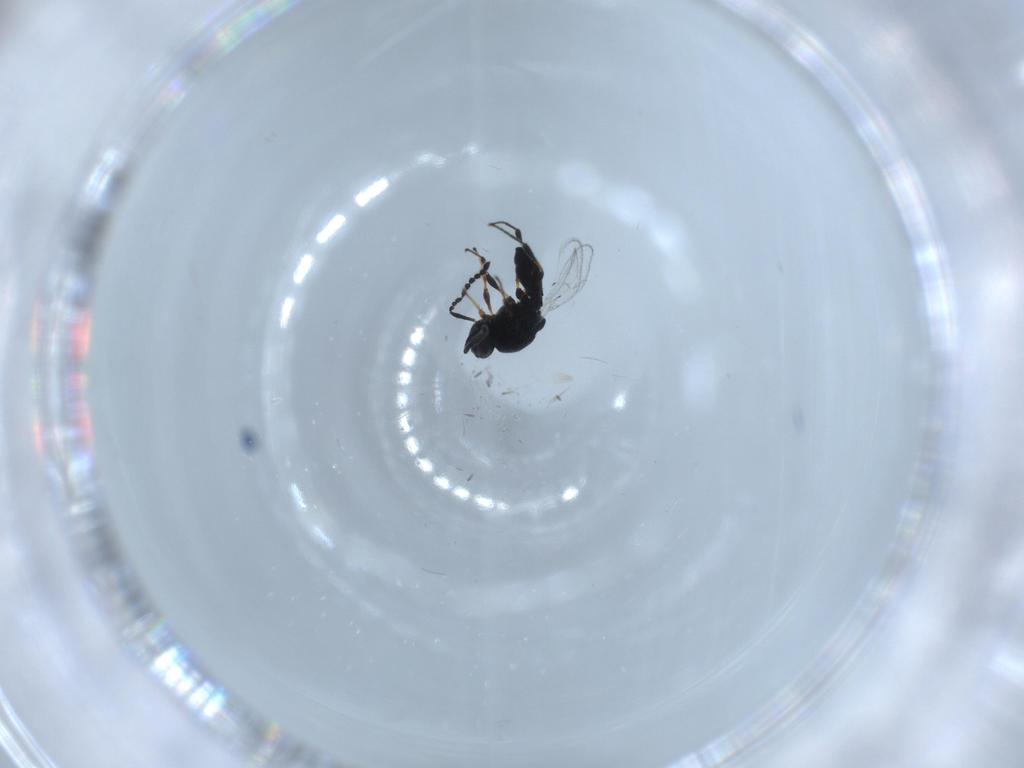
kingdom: Animalia
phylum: Arthropoda
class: Insecta
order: Hymenoptera
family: Platygastridae
